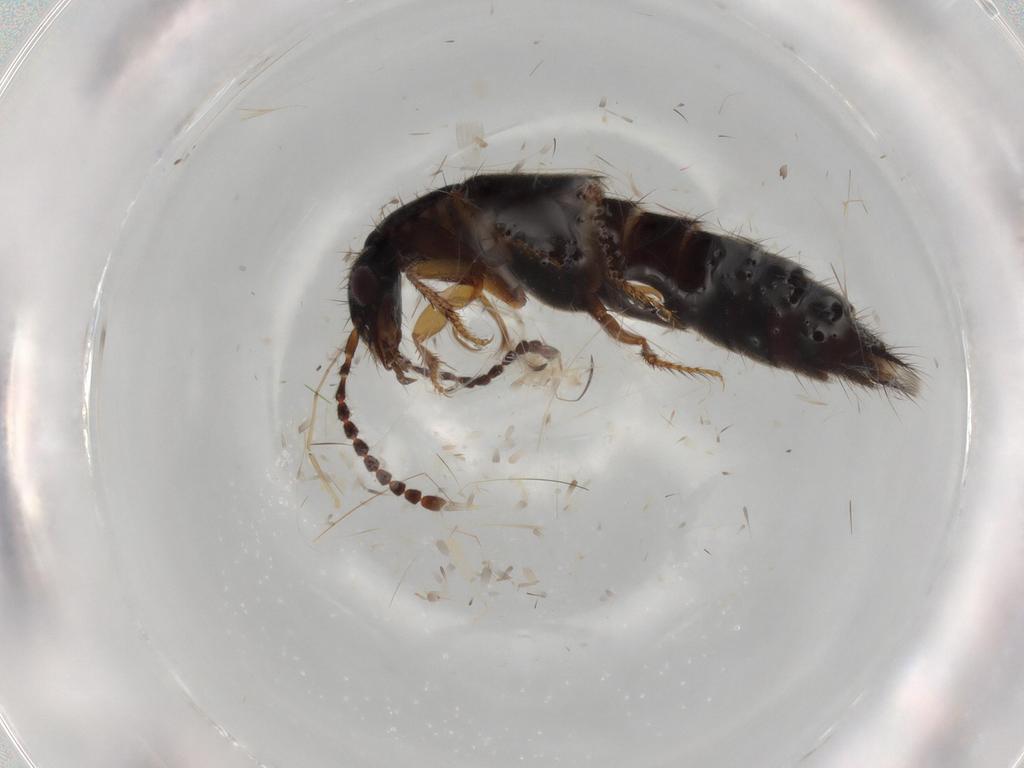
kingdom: Animalia
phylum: Arthropoda
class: Insecta
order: Coleoptera
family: Staphylinidae
